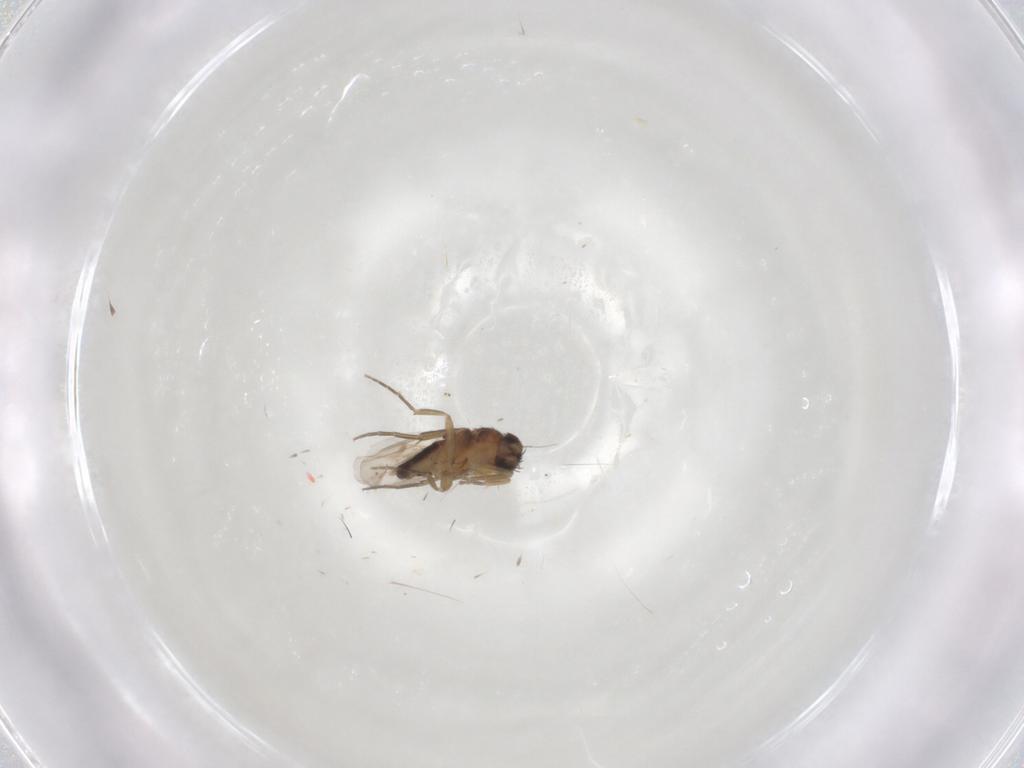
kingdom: Animalia
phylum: Arthropoda
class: Insecta
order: Diptera
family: Phoridae
